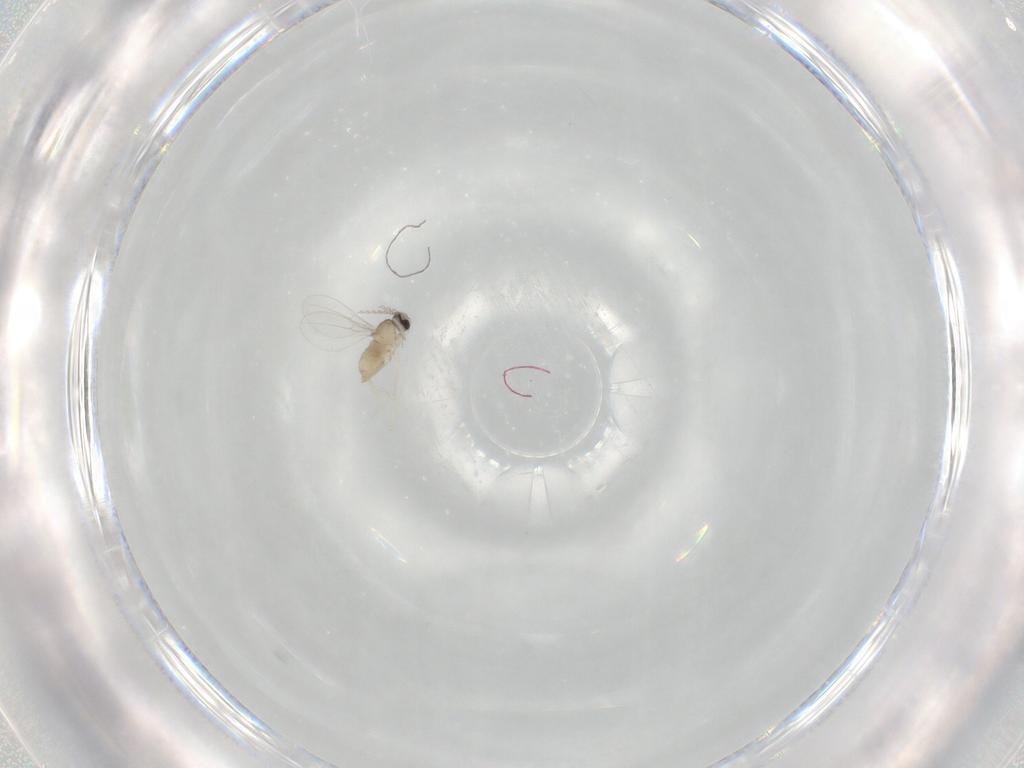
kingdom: Animalia
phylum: Arthropoda
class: Insecta
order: Diptera
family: Cecidomyiidae
